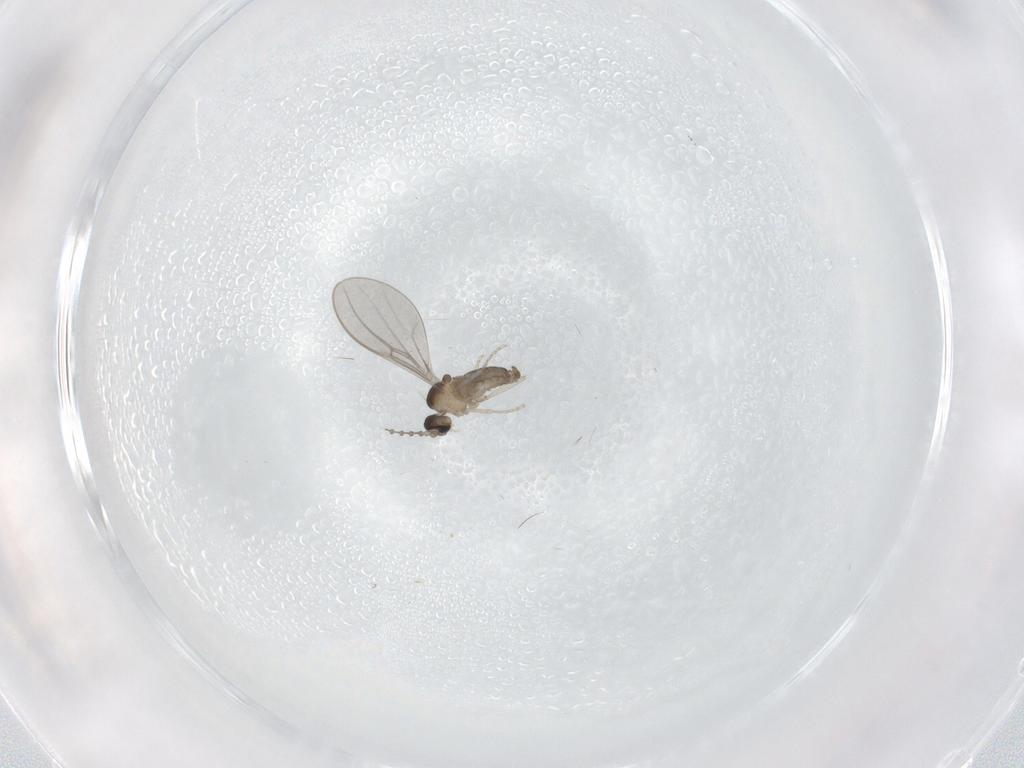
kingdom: Animalia
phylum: Arthropoda
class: Insecta
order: Diptera
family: Cecidomyiidae
